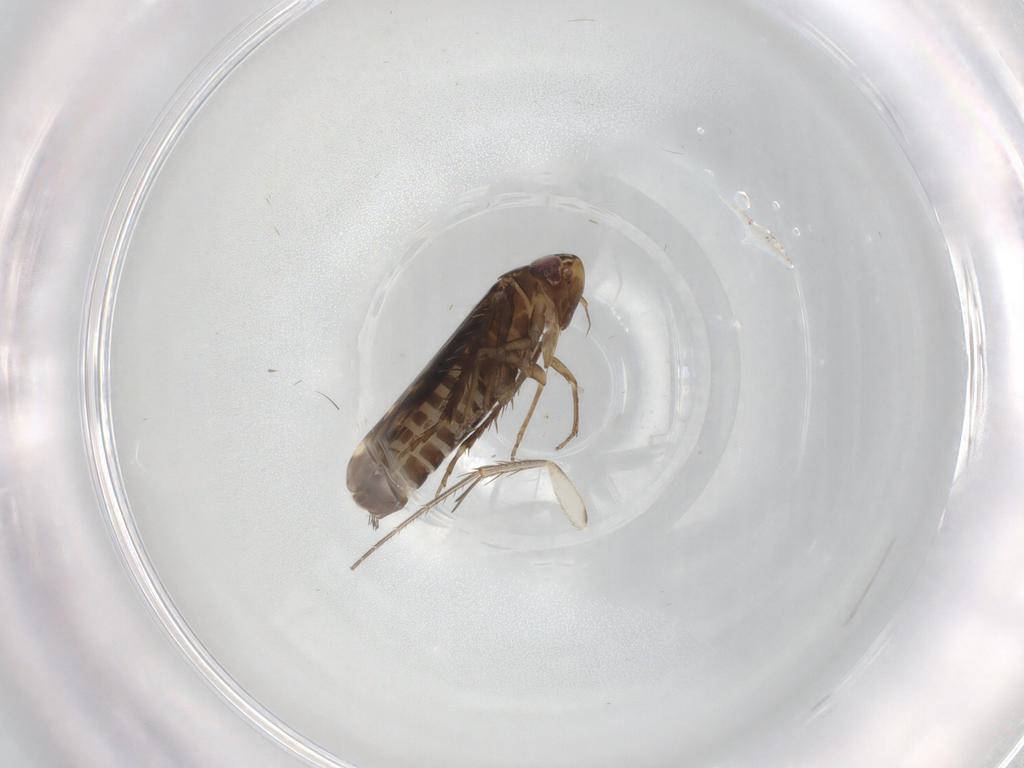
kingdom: Animalia
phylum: Arthropoda
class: Insecta
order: Hemiptera
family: Cicadellidae
